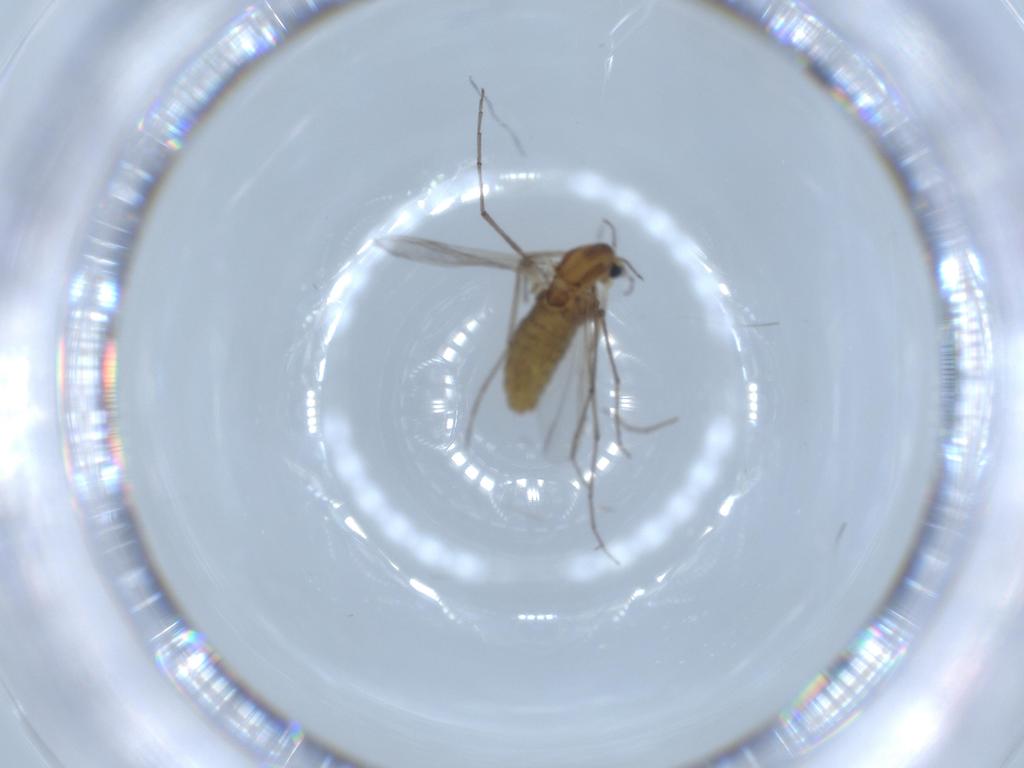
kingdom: Animalia
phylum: Arthropoda
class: Insecta
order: Diptera
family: Chironomidae
